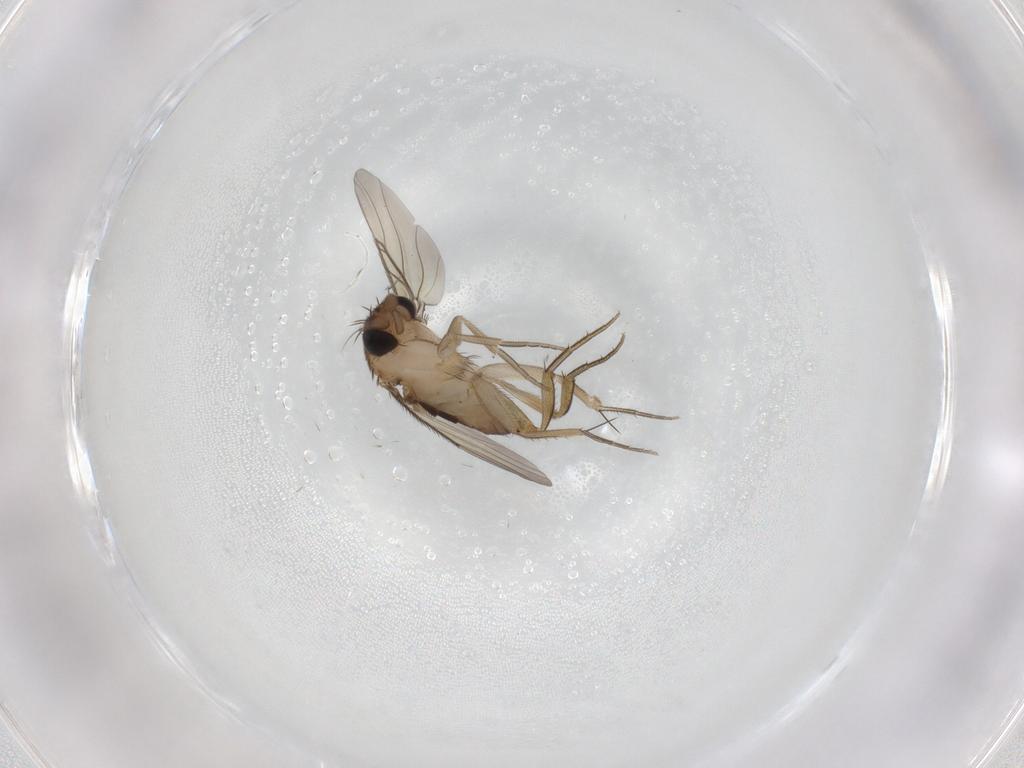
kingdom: Animalia
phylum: Arthropoda
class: Insecta
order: Diptera
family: Phoridae
